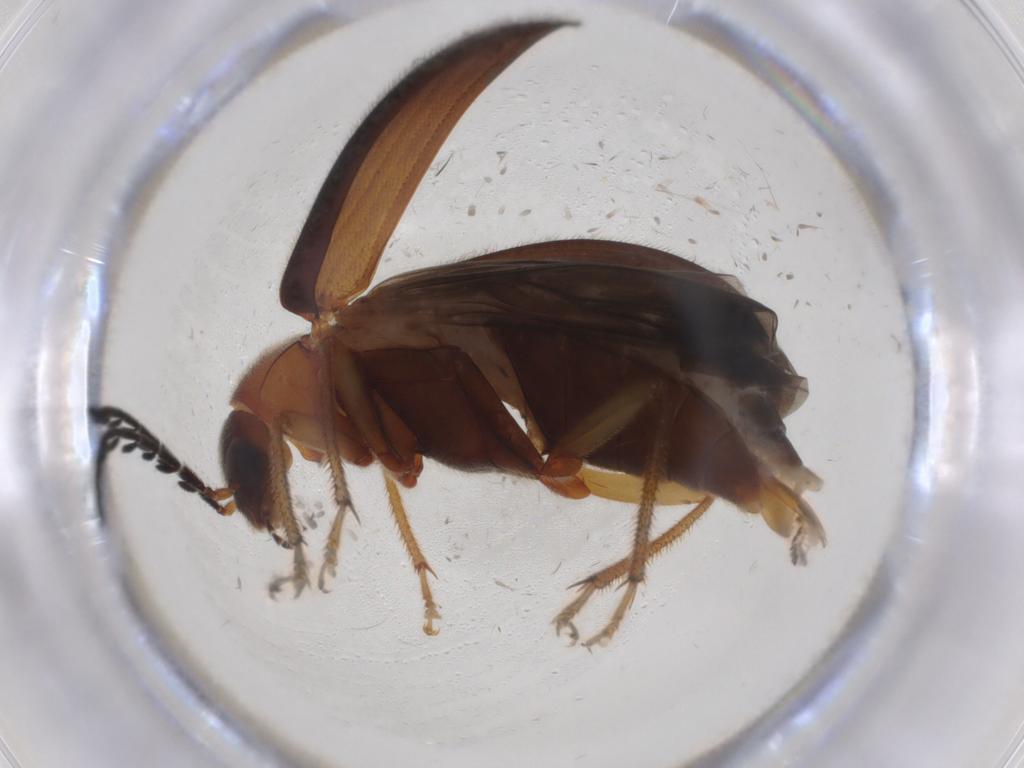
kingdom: Animalia
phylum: Arthropoda
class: Insecta
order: Coleoptera
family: Ptilodactylidae
